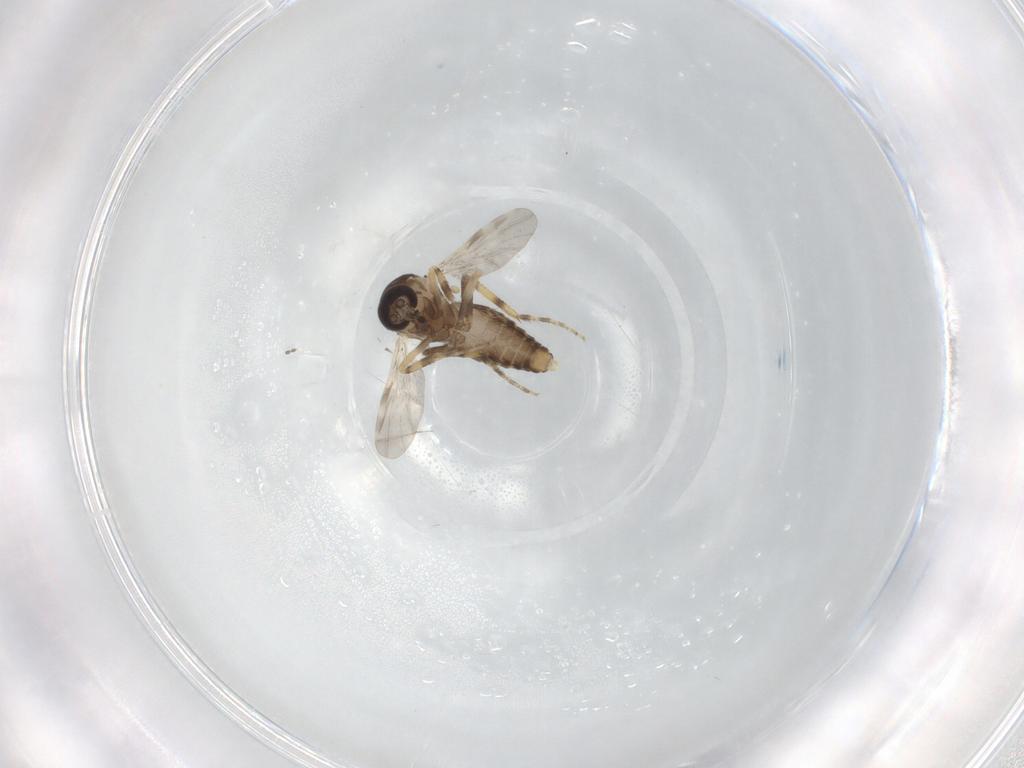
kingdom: Animalia
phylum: Arthropoda
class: Insecta
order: Diptera
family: Ceratopogonidae
